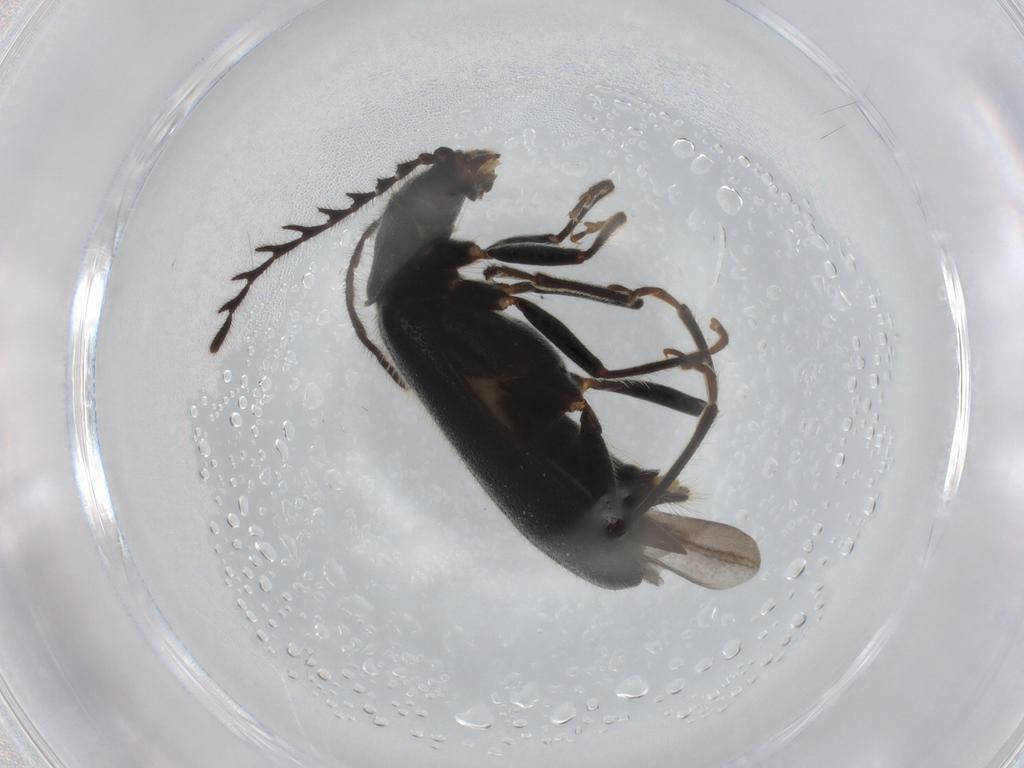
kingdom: Animalia
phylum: Arthropoda
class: Insecta
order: Coleoptera
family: Melyridae
